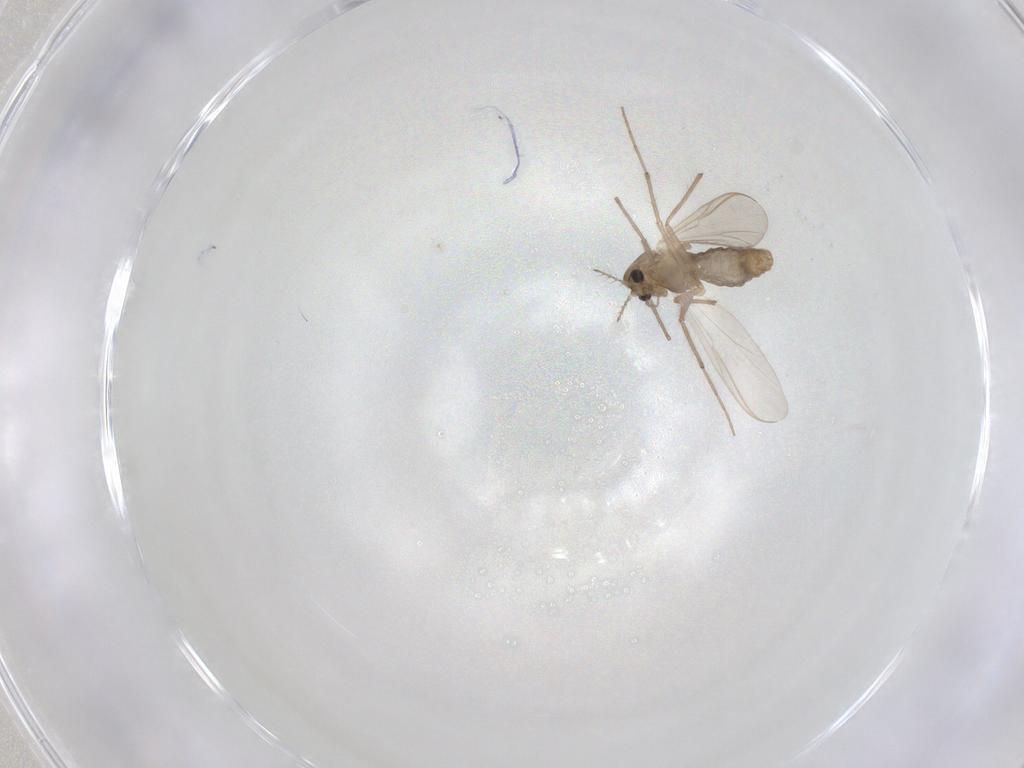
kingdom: Animalia
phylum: Arthropoda
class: Insecta
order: Diptera
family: Chironomidae
